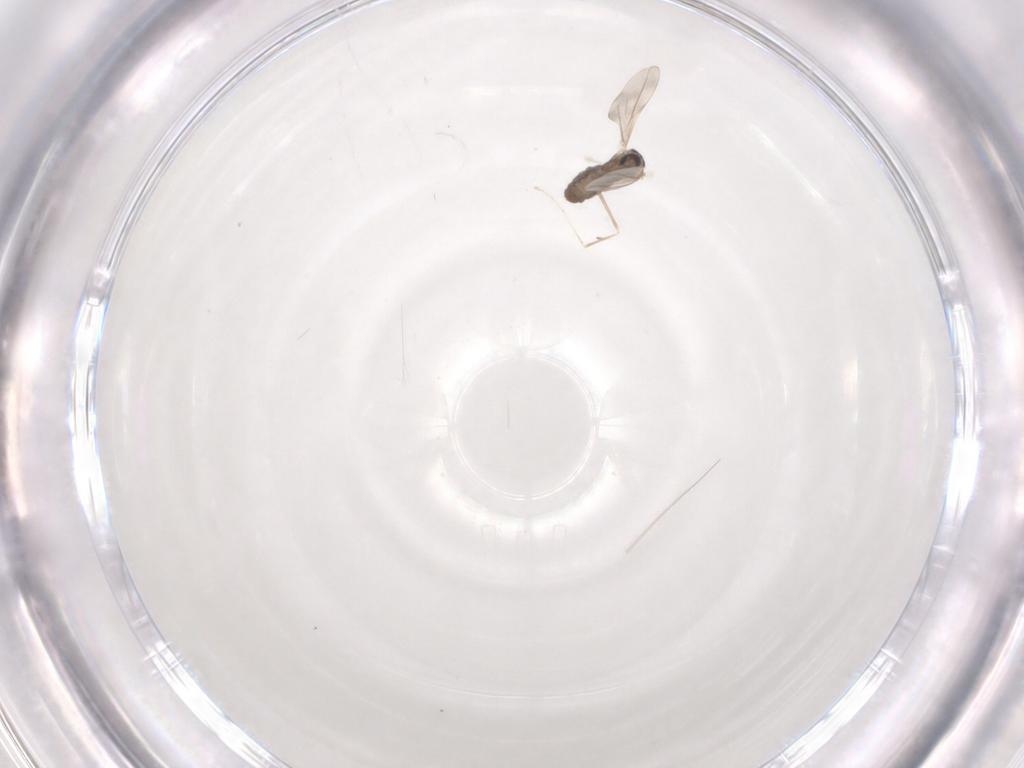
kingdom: Animalia
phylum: Arthropoda
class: Insecta
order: Diptera
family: Cecidomyiidae
